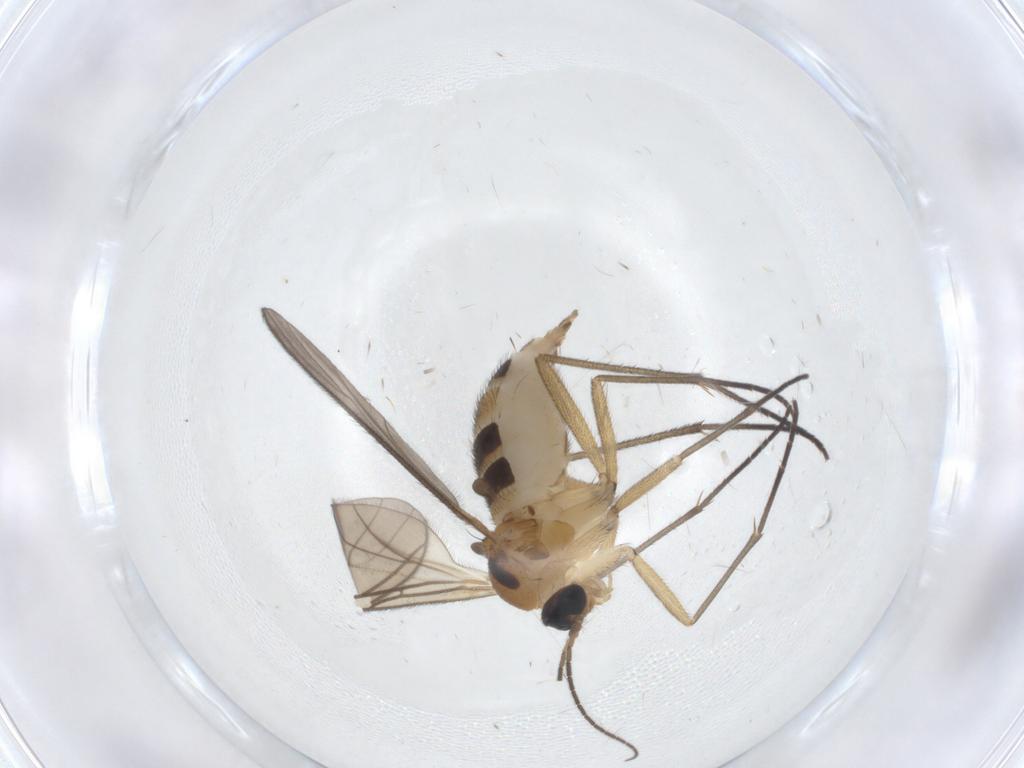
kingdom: Animalia
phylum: Arthropoda
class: Insecta
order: Diptera
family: Sciaridae
